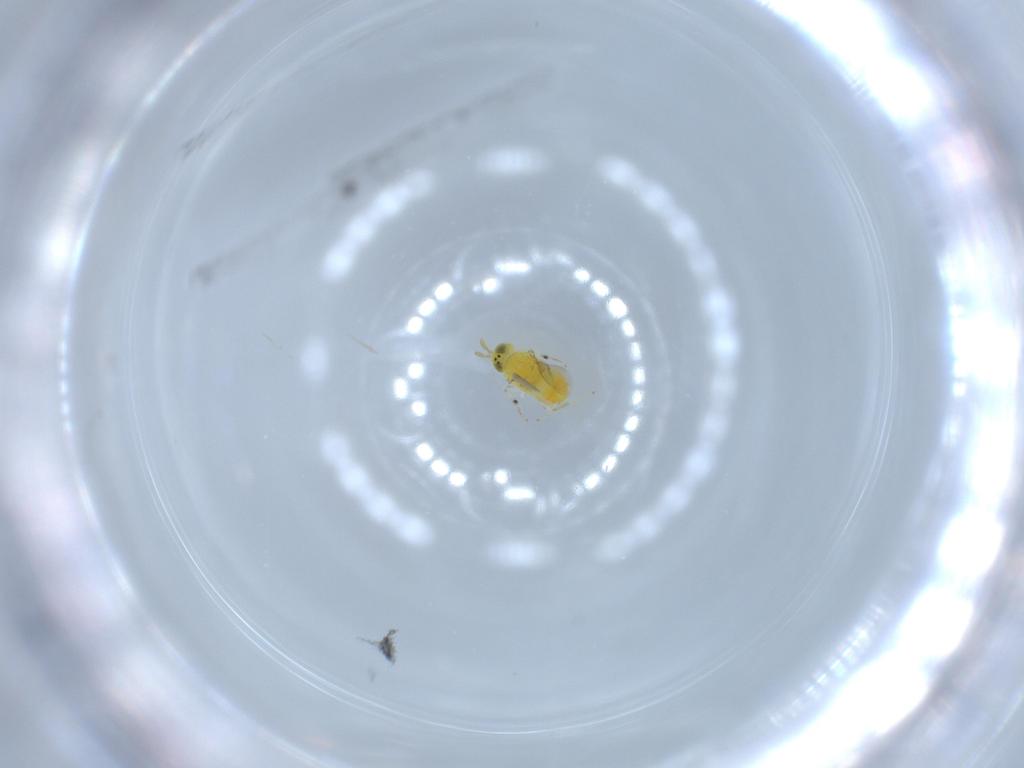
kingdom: Animalia
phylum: Arthropoda
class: Insecta
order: Hymenoptera
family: Aphelinidae
